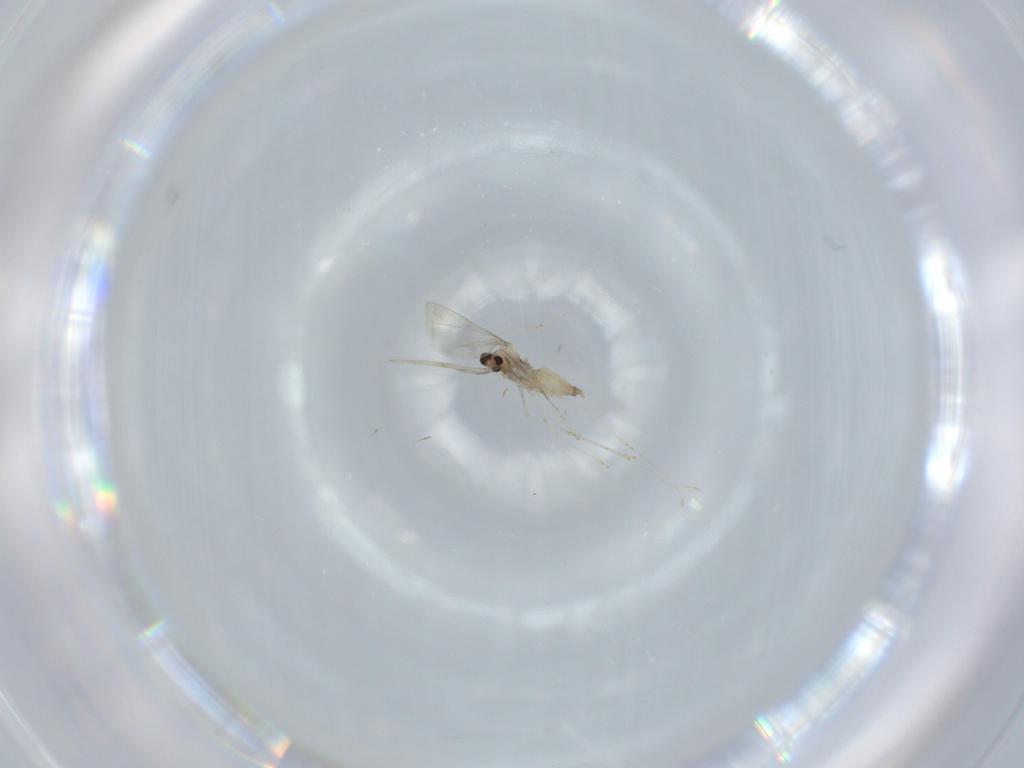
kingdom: Animalia
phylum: Arthropoda
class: Insecta
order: Diptera
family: Cecidomyiidae
